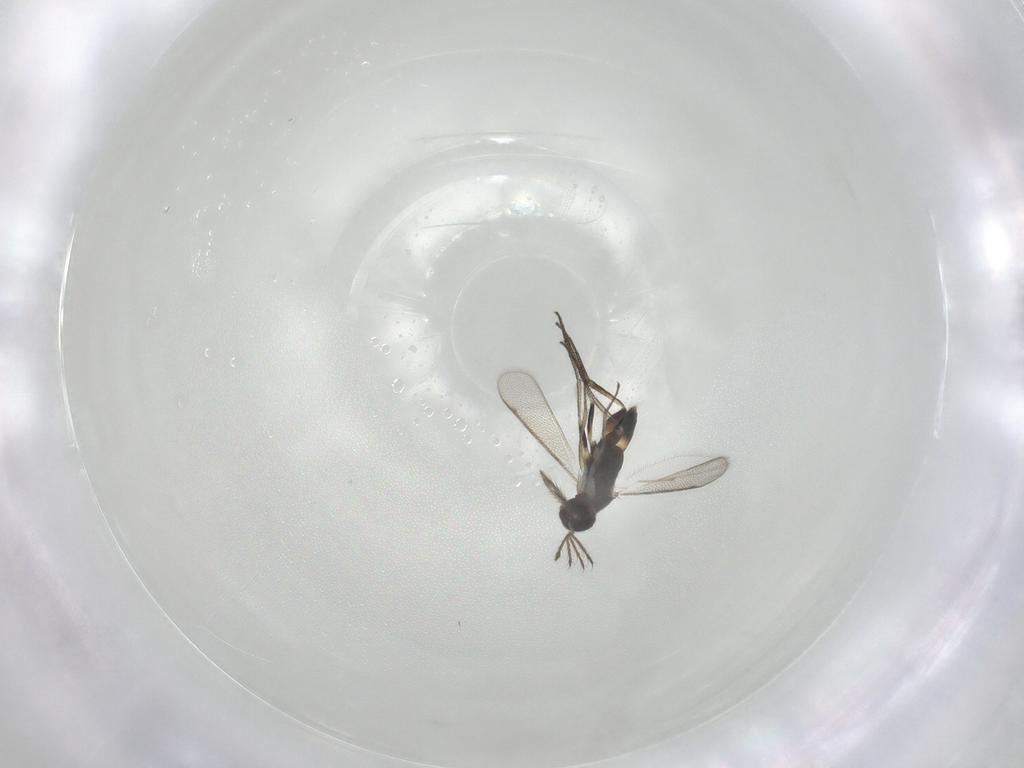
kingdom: Animalia
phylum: Arthropoda
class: Insecta
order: Hymenoptera
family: Eulophidae
